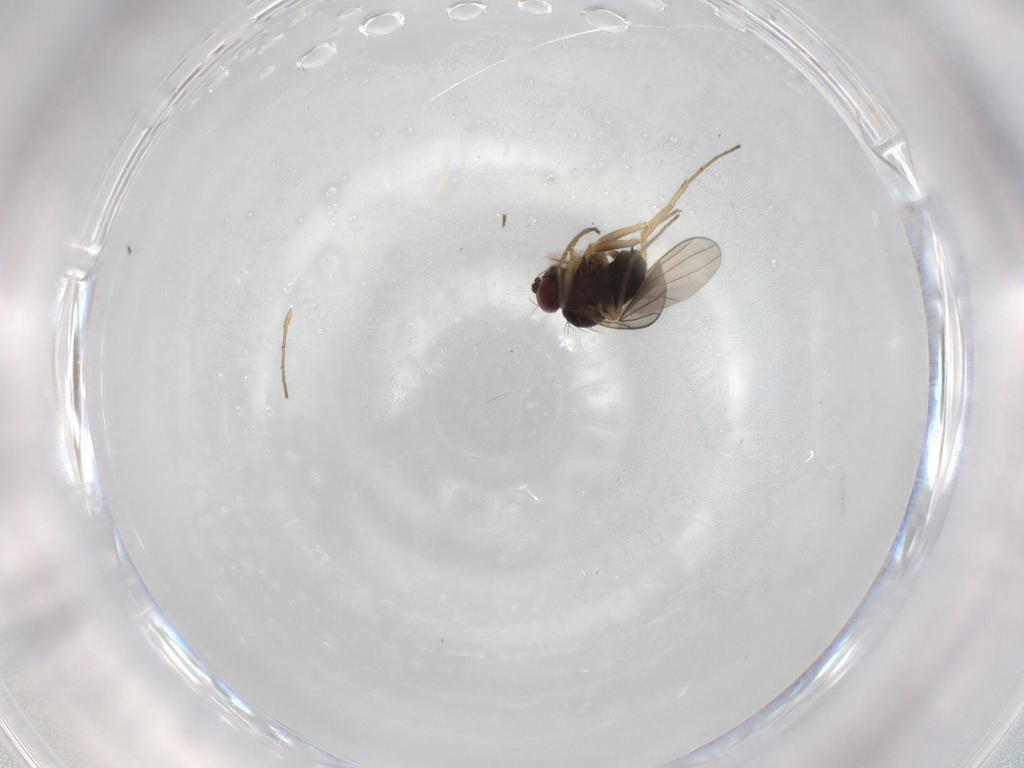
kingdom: Animalia
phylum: Arthropoda
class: Insecta
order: Diptera
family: Dolichopodidae
